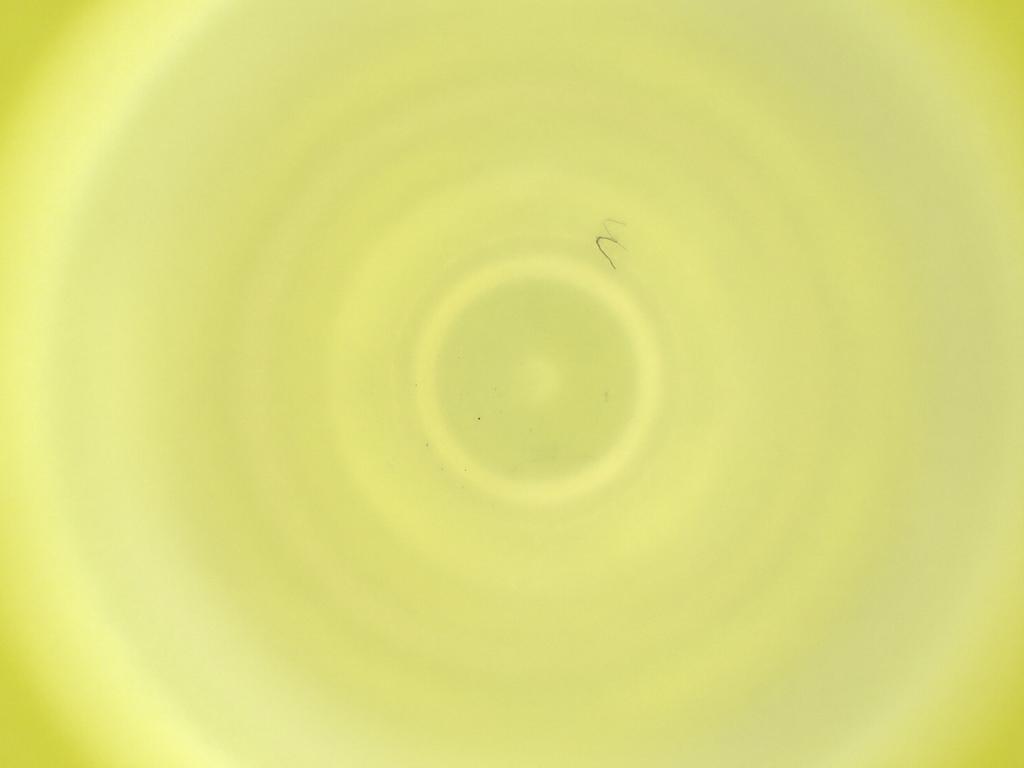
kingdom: Animalia
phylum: Arthropoda
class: Insecta
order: Diptera
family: Cecidomyiidae
